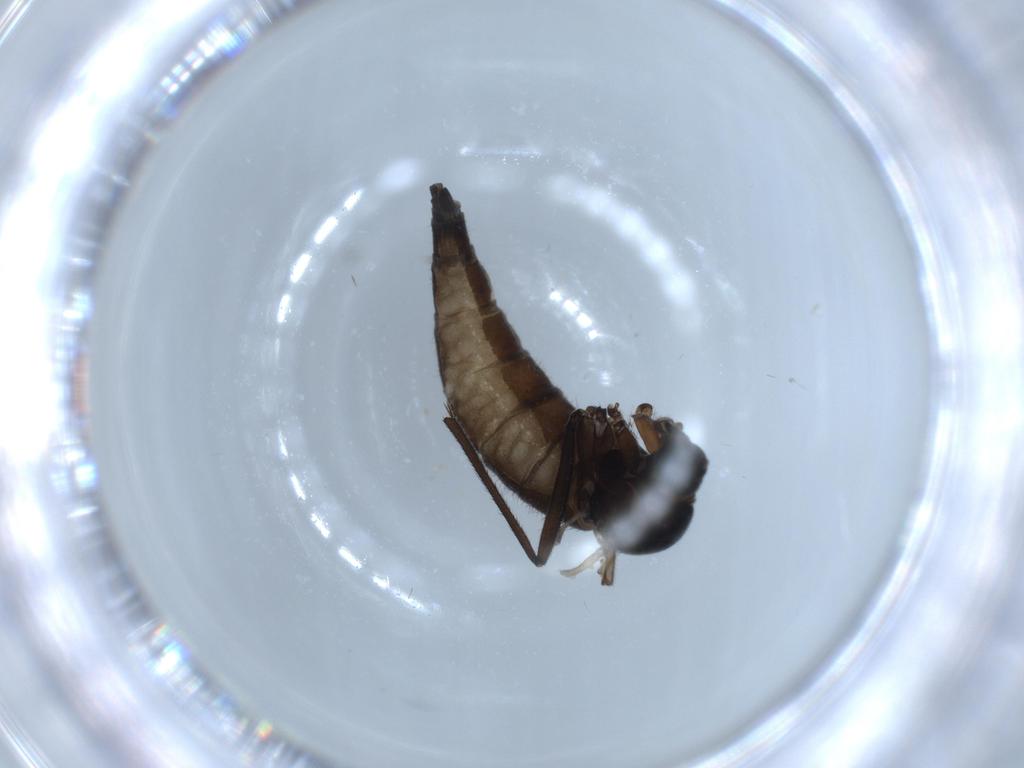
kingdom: Animalia
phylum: Arthropoda
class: Insecta
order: Diptera
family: Sciaridae
